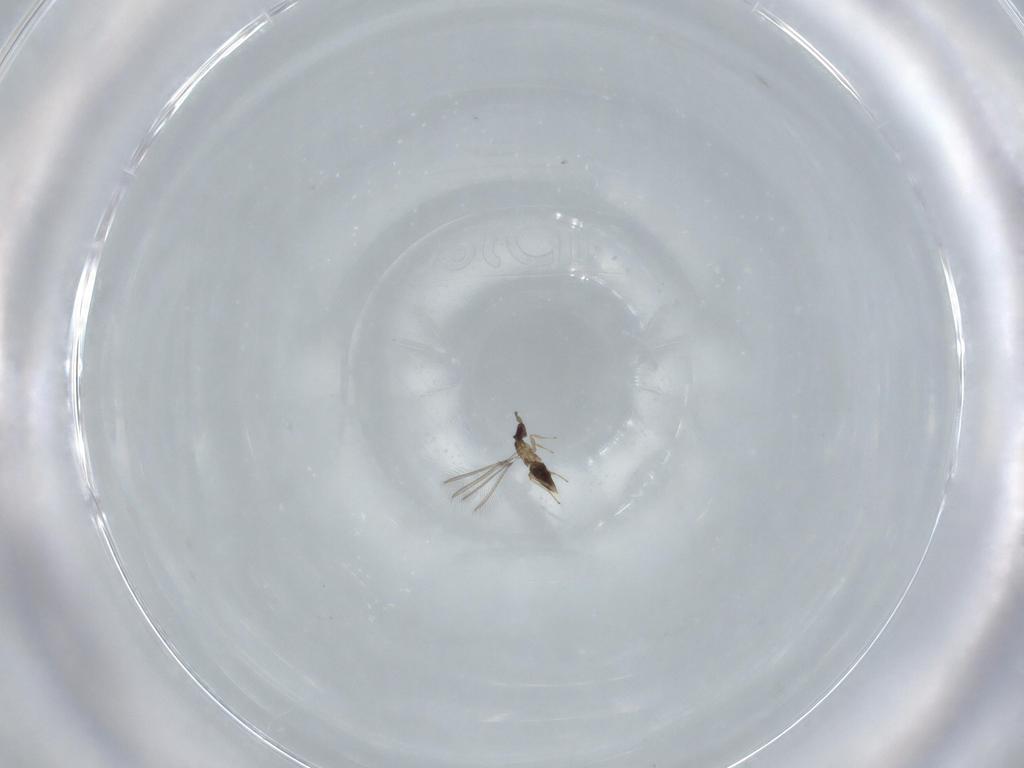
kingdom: Animalia
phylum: Arthropoda
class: Insecta
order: Hymenoptera
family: Mymaridae
